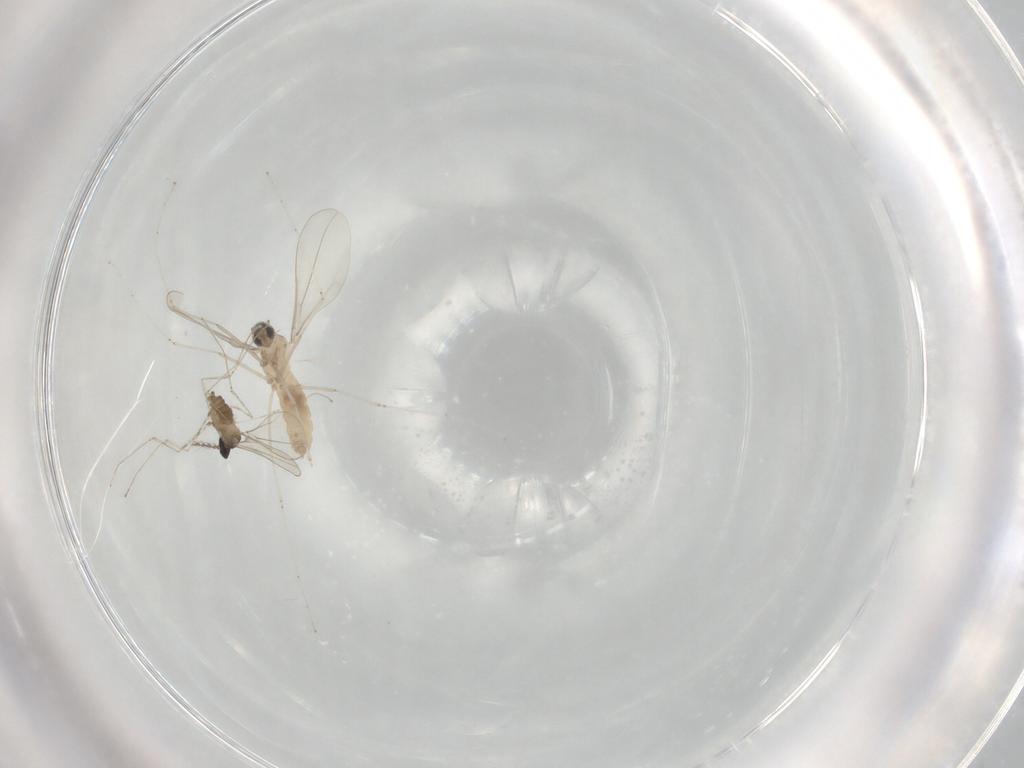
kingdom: Animalia
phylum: Arthropoda
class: Insecta
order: Diptera
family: Cecidomyiidae
